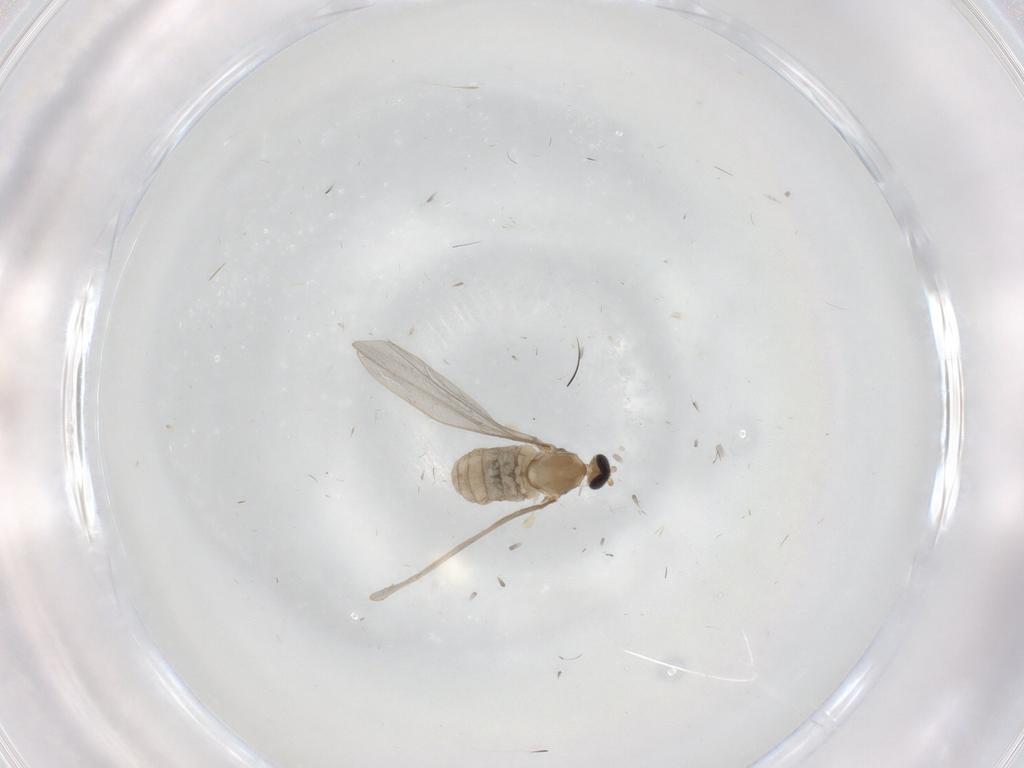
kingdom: Animalia
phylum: Arthropoda
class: Insecta
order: Diptera
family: Cecidomyiidae
